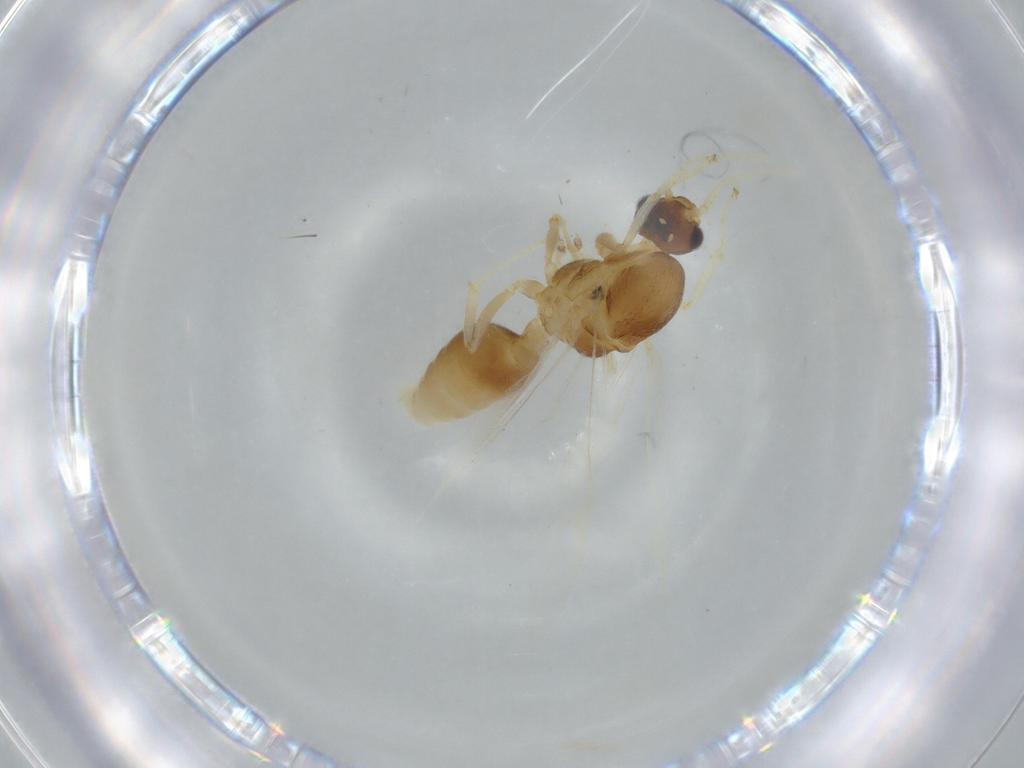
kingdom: Animalia
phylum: Arthropoda
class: Insecta
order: Hymenoptera
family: Formicidae
